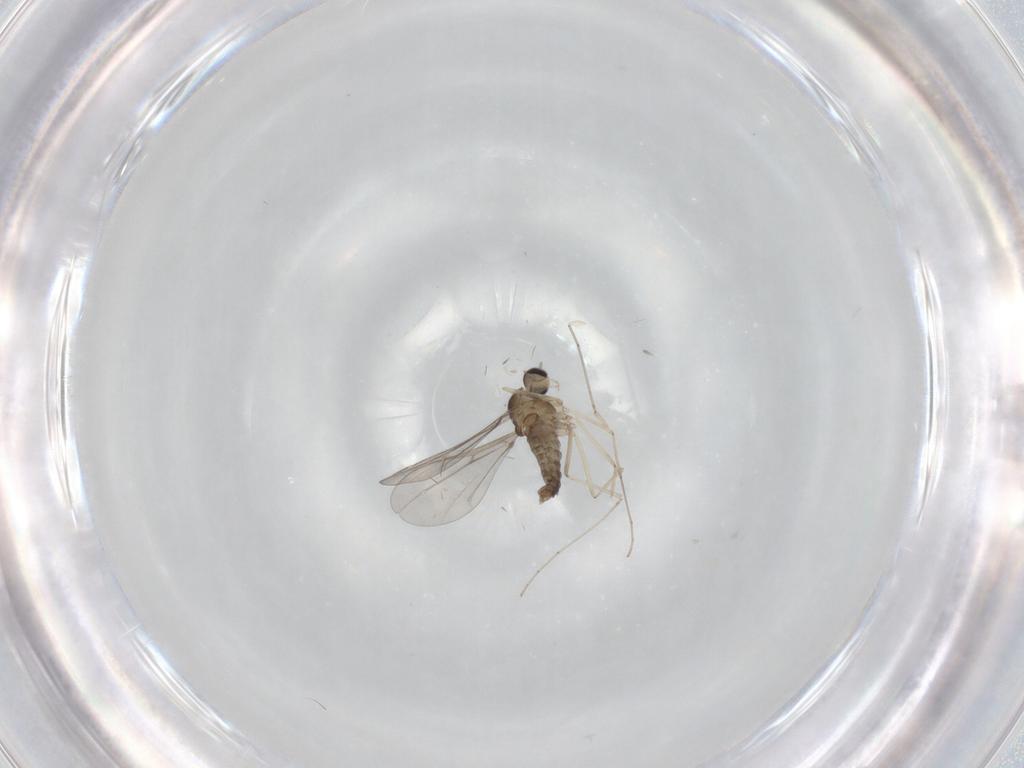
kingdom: Animalia
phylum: Arthropoda
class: Insecta
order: Diptera
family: Cecidomyiidae
